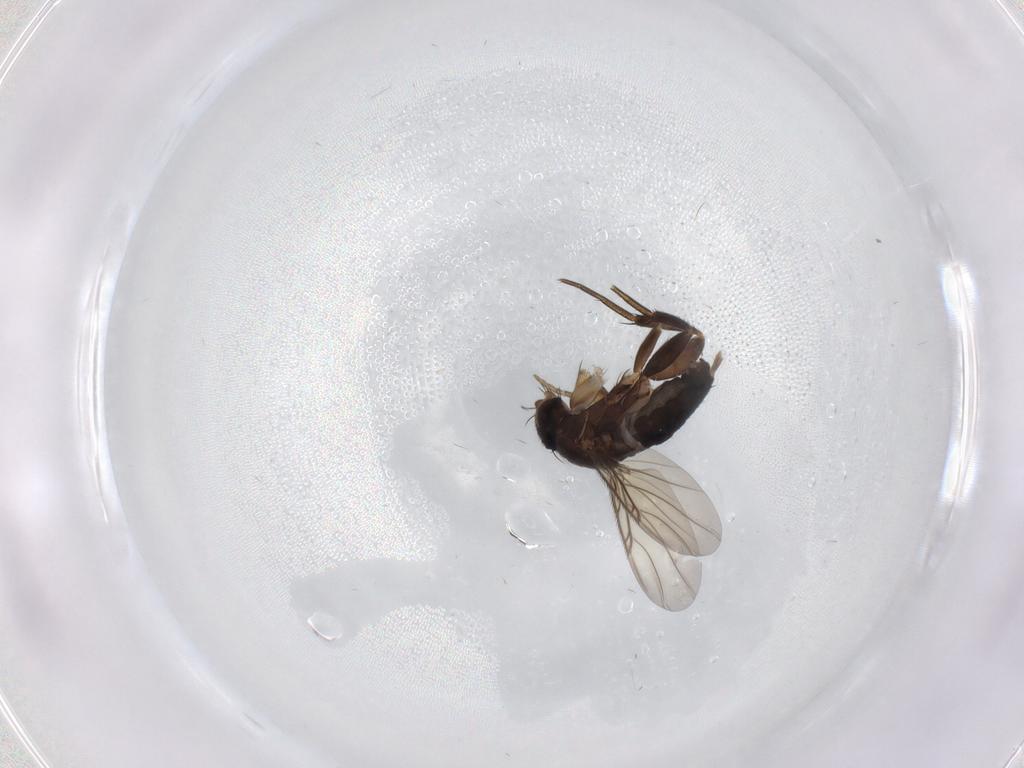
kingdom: Animalia
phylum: Arthropoda
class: Insecta
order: Diptera
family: Phoridae
